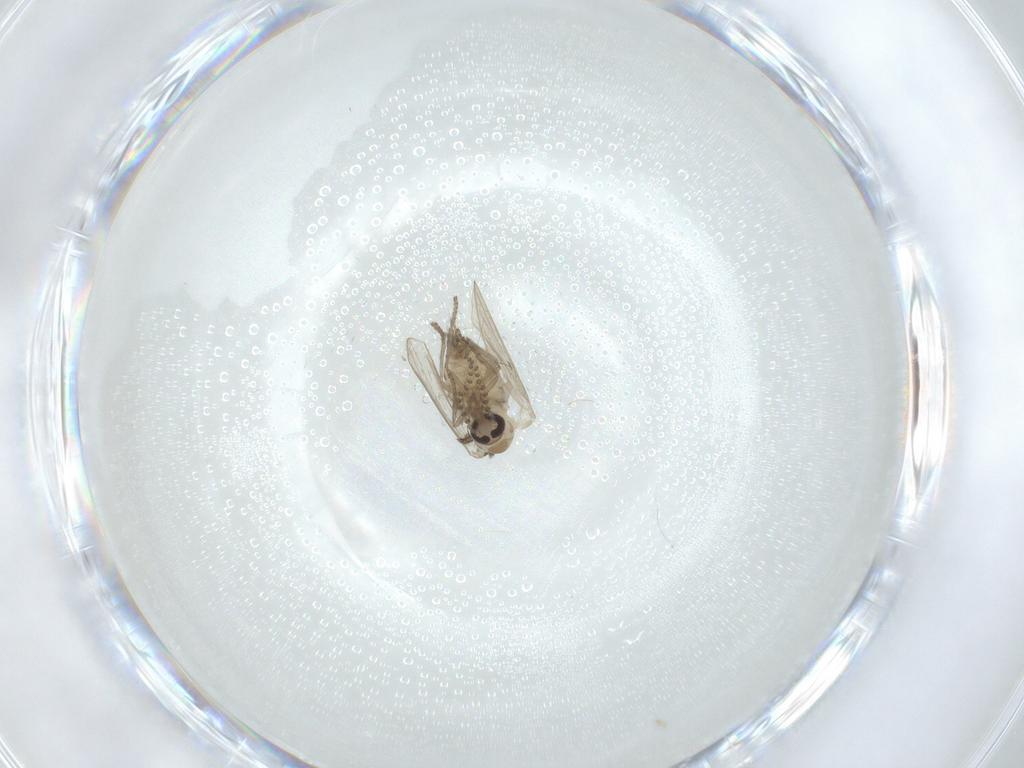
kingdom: Animalia
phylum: Arthropoda
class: Insecta
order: Diptera
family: Psychodidae
